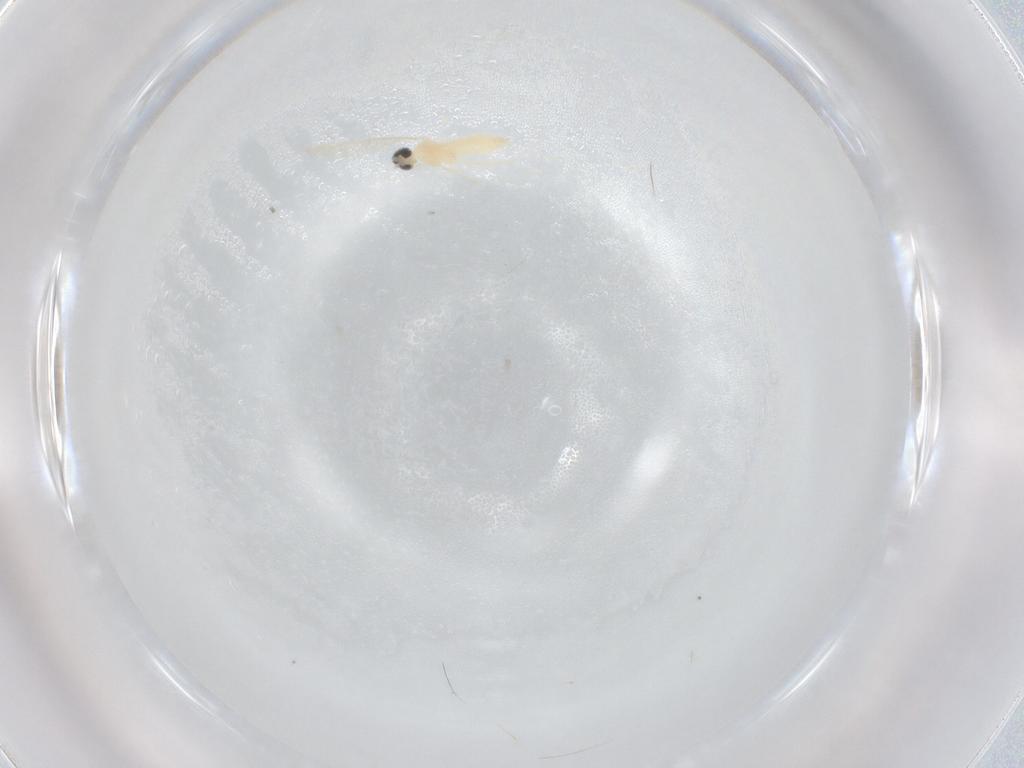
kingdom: Animalia
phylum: Arthropoda
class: Insecta
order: Diptera
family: Cecidomyiidae
